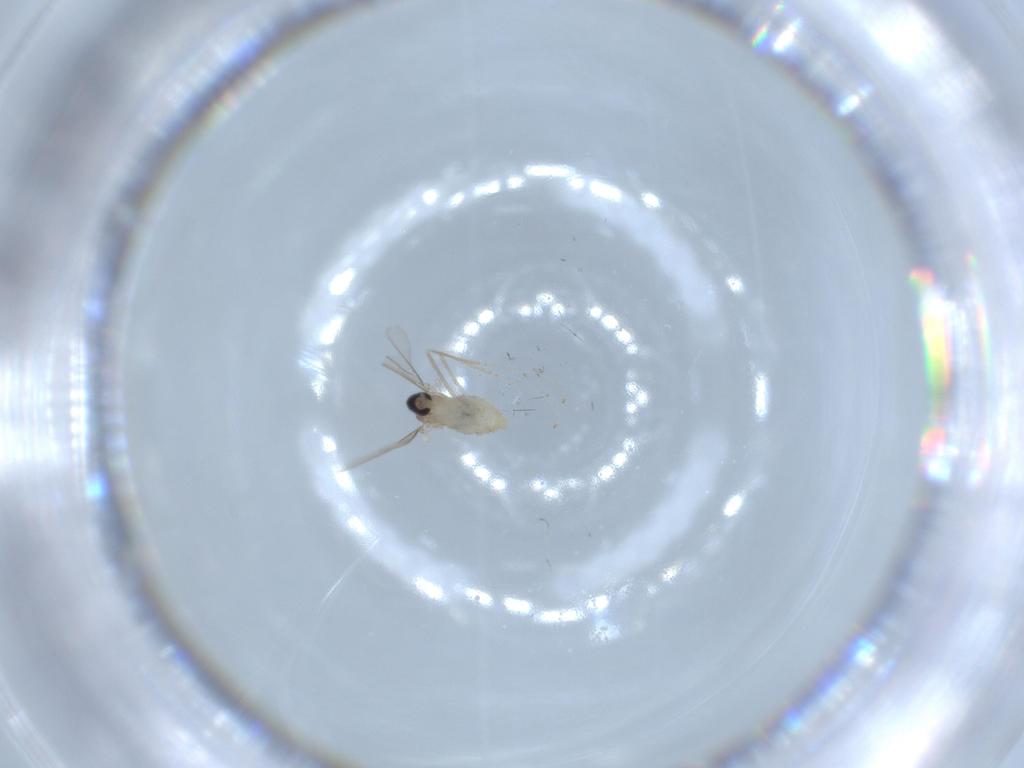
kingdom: Animalia
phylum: Arthropoda
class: Insecta
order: Diptera
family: Cecidomyiidae
